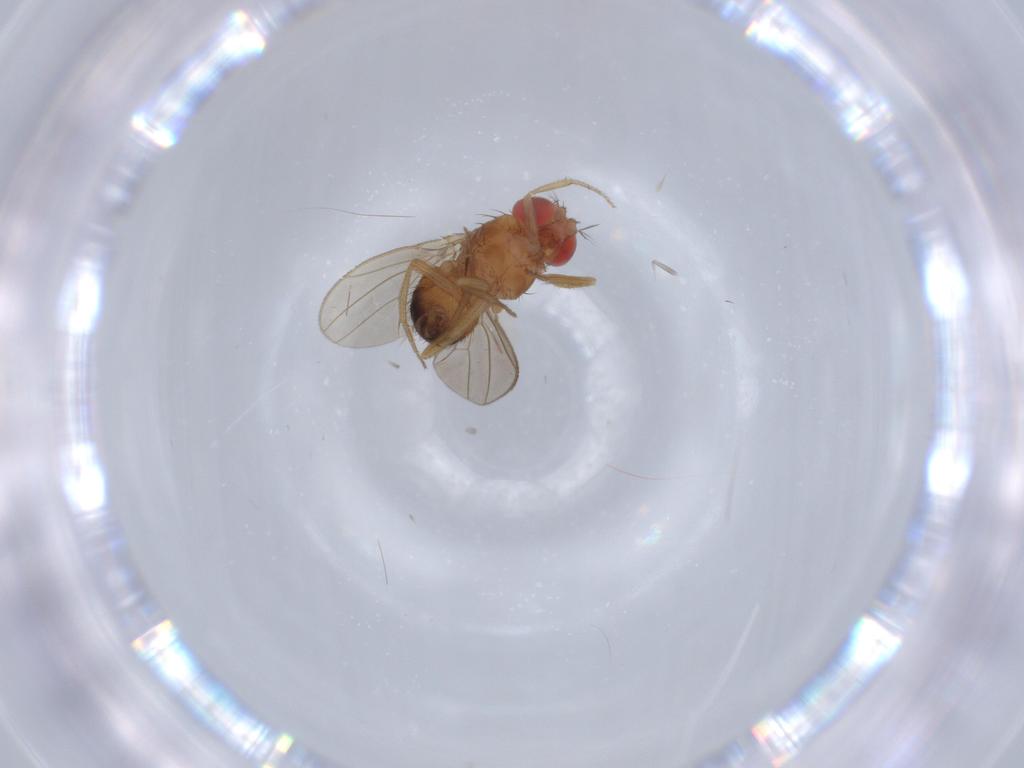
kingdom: Animalia
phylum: Arthropoda
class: Insecta
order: Diptera
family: Drosophilidae
